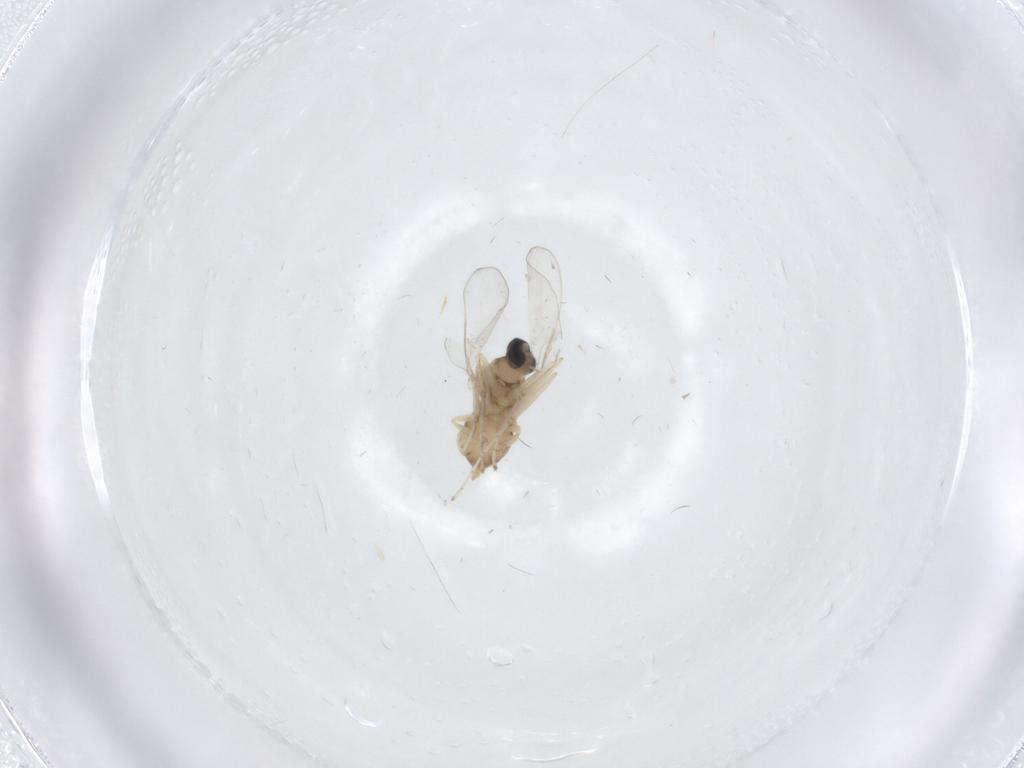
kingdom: Animalia
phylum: Arthropoda
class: Insecta
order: Diptera
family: Cecidomyiidae
